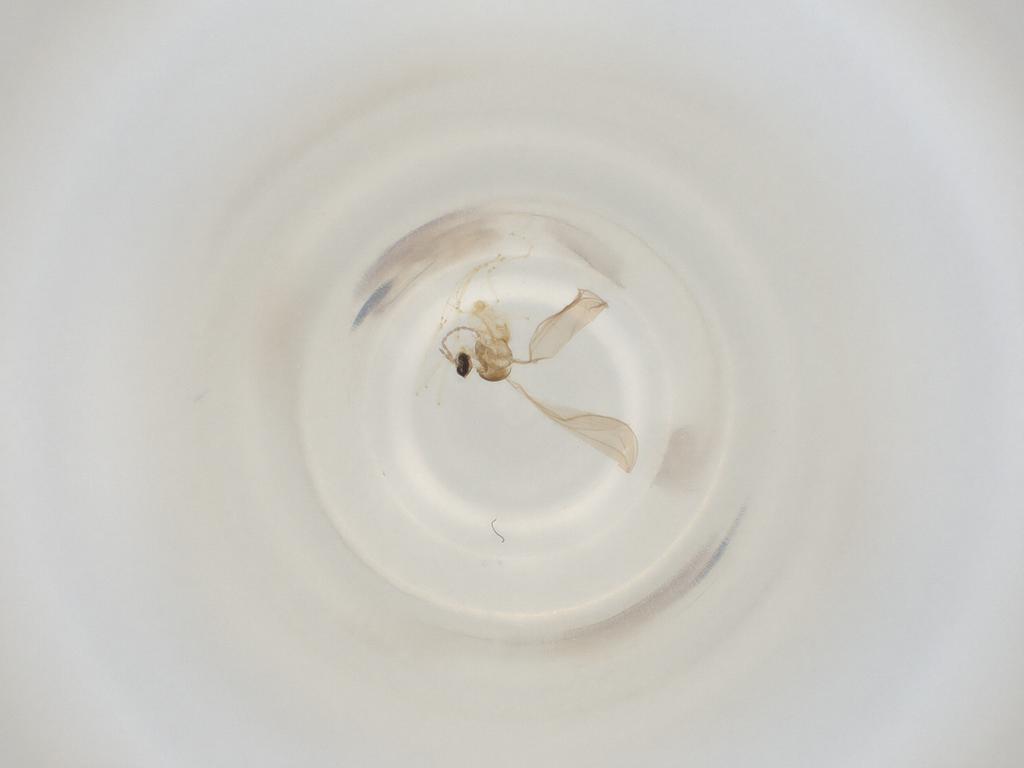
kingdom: Animalia
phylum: Arthropoda
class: Insecta
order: Diptera
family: Cecidomyiidae
